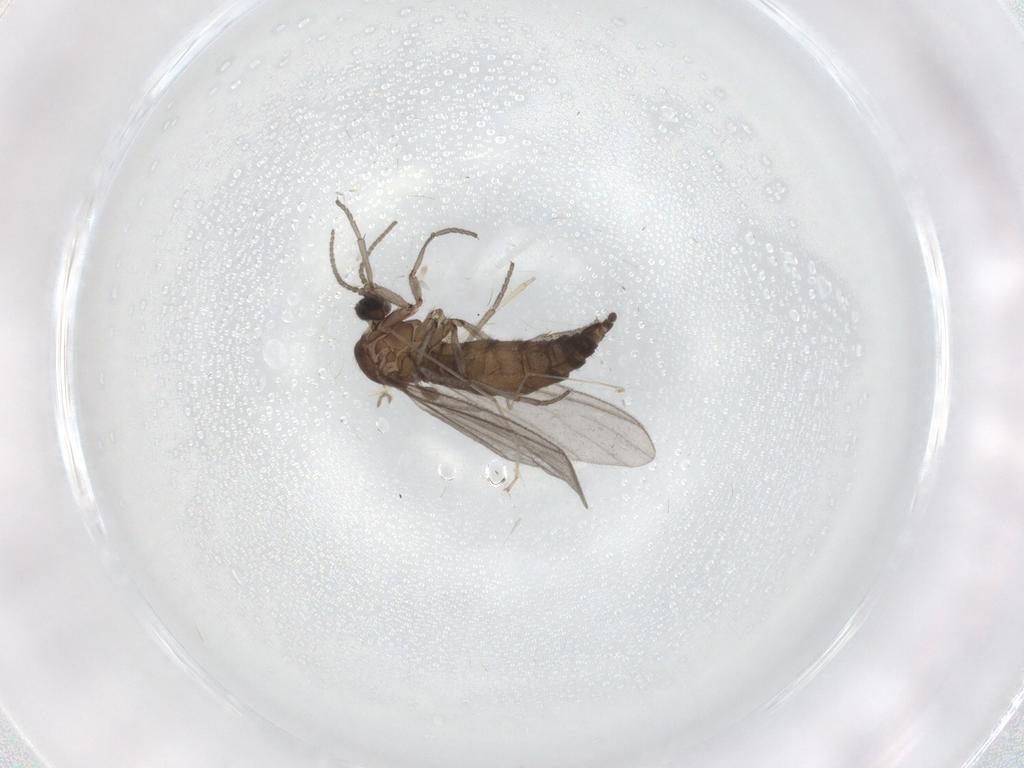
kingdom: Animalia
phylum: Arthropoda
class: Insecta
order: Diptera
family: Sciaridae
